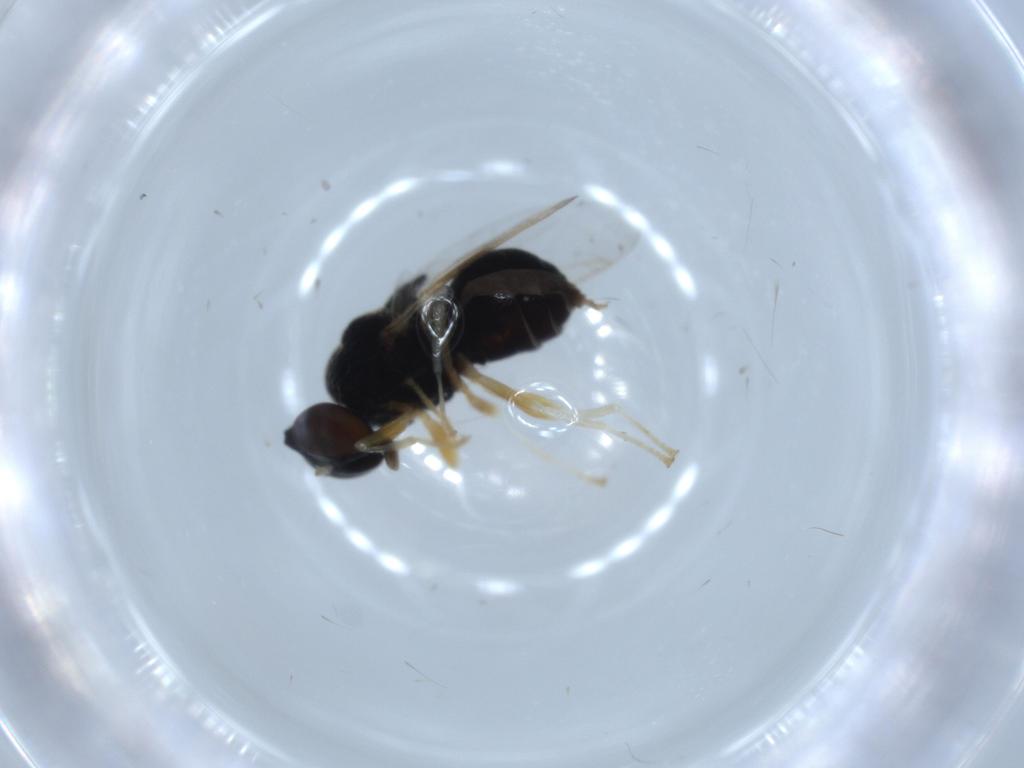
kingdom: Animalia
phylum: Arthropoda
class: Insecta
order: Diptera
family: Stratiomyidae
